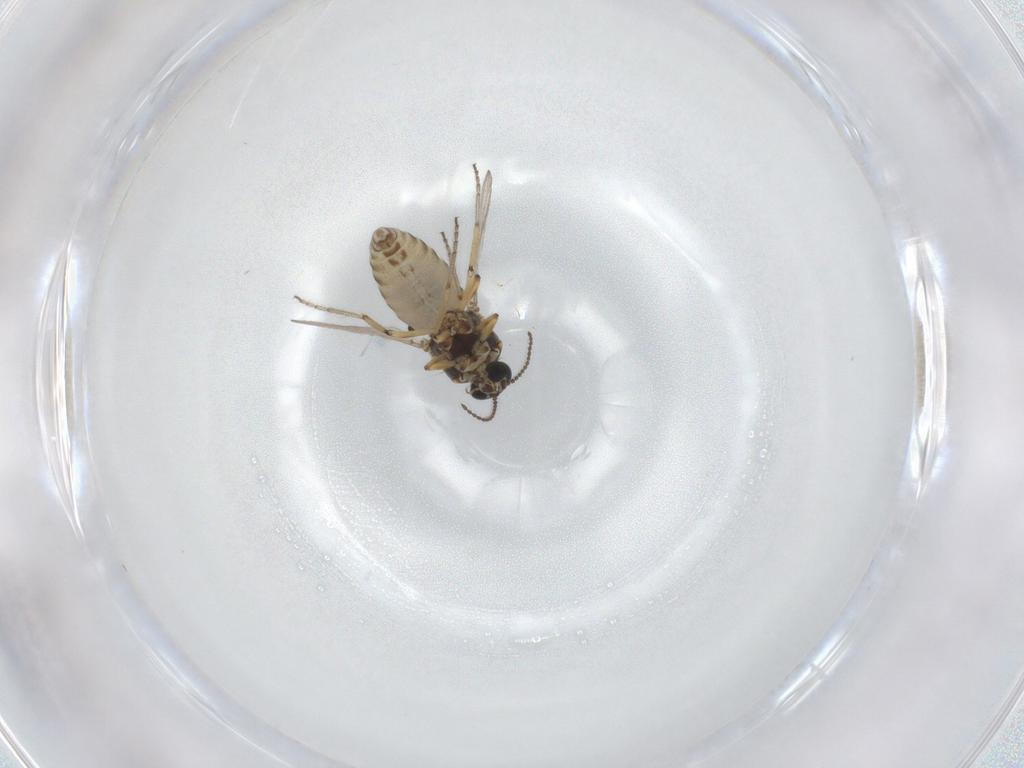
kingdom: Animalia
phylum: Arthropoda
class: Insecta
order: Diptera
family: Ceratopogonidae
